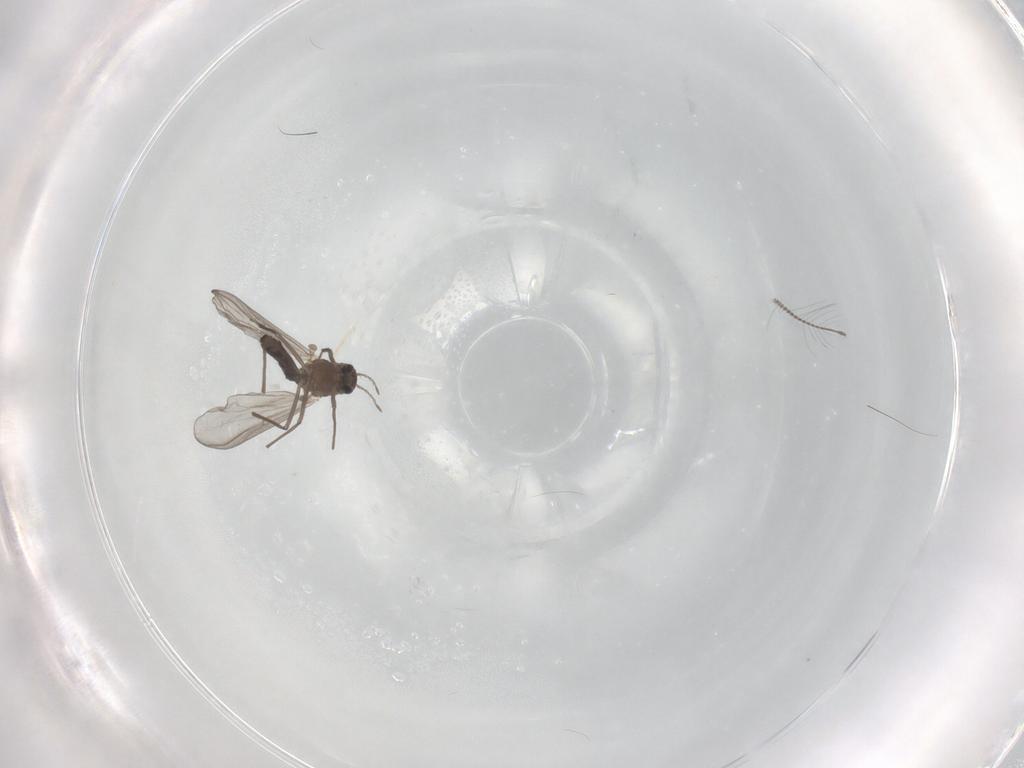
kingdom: Animalia
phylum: Arthropoda
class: Insecta
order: Diptera
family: Chironomidae
